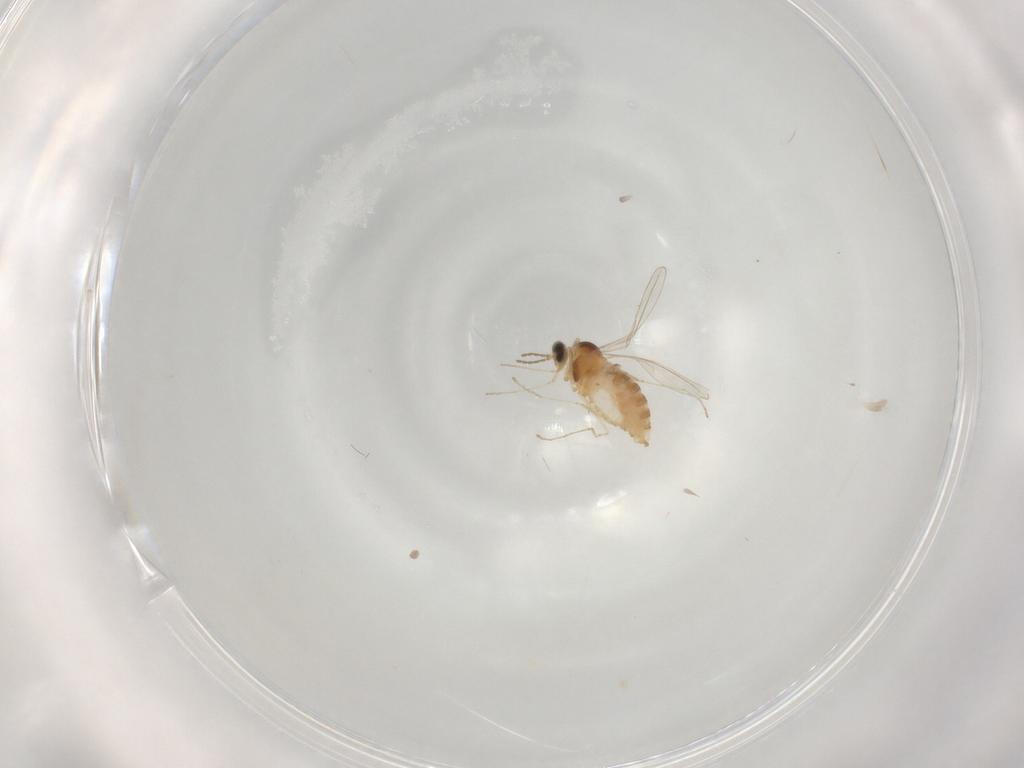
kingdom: Animalia
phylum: Arthropoda
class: Insecta
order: Diptera
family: Cecidomyiidae
